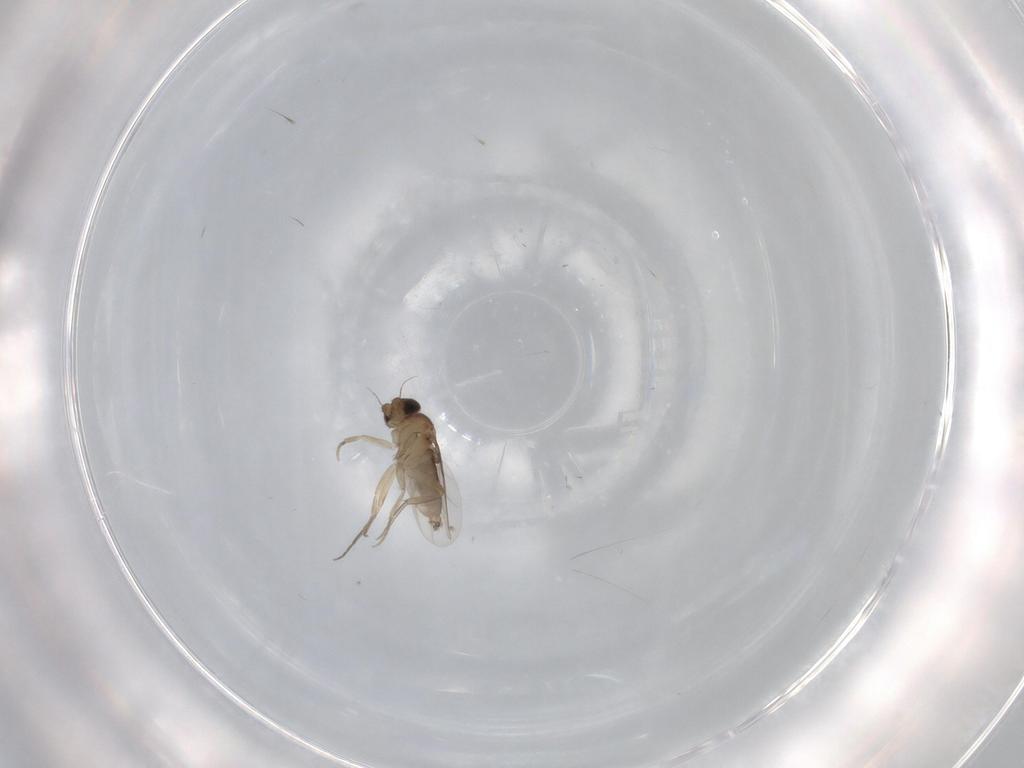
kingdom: Animalia
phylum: Arthropoda
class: Insecta
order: Diptera
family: Phoridae
